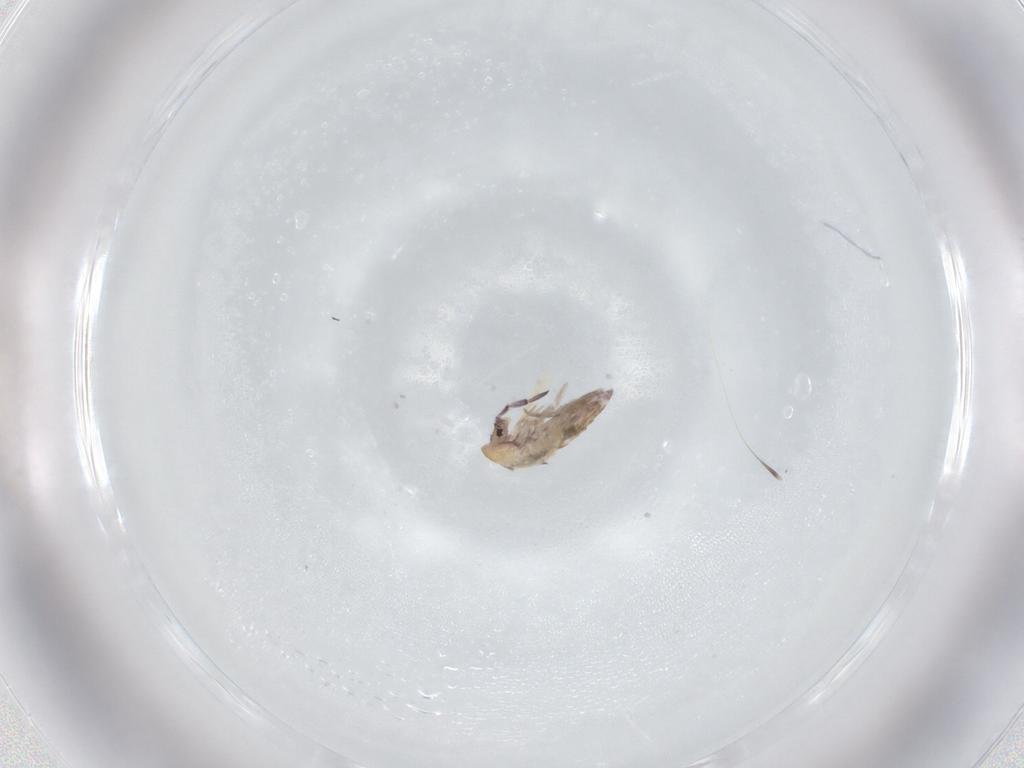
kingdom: Animalia
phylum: Arthropoda
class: Collembola
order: Entomobryomorpha
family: Entomobryidae
